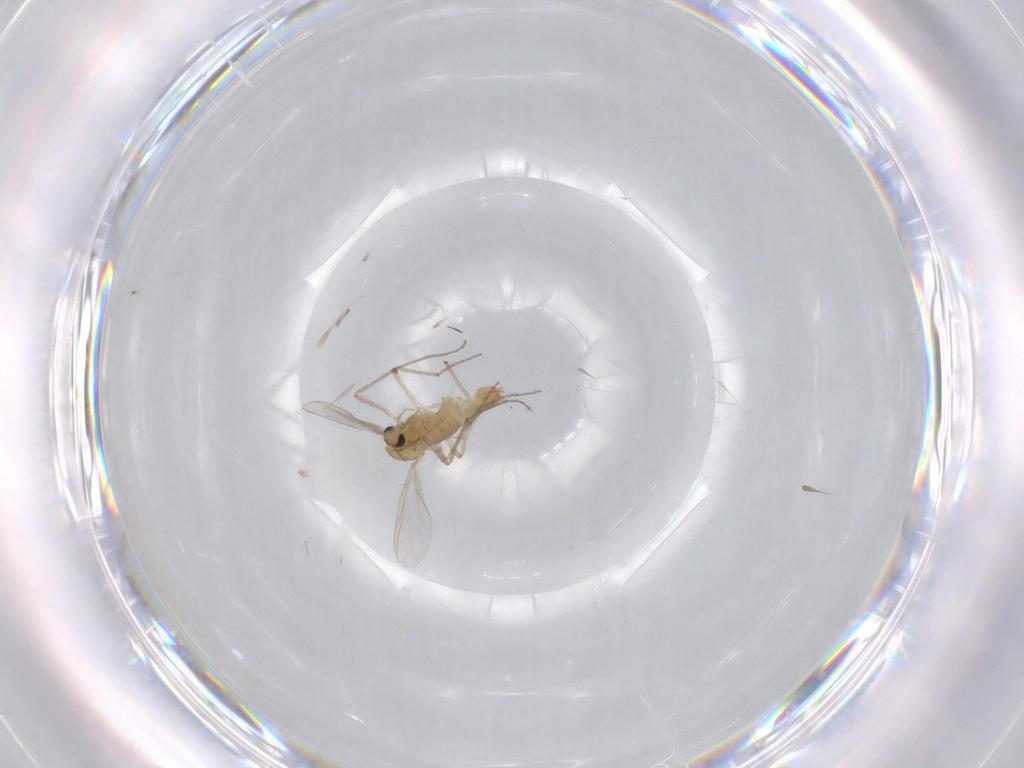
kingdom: Animalia
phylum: Arthropoda
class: Insecta
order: Diptera
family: Chironomidae
